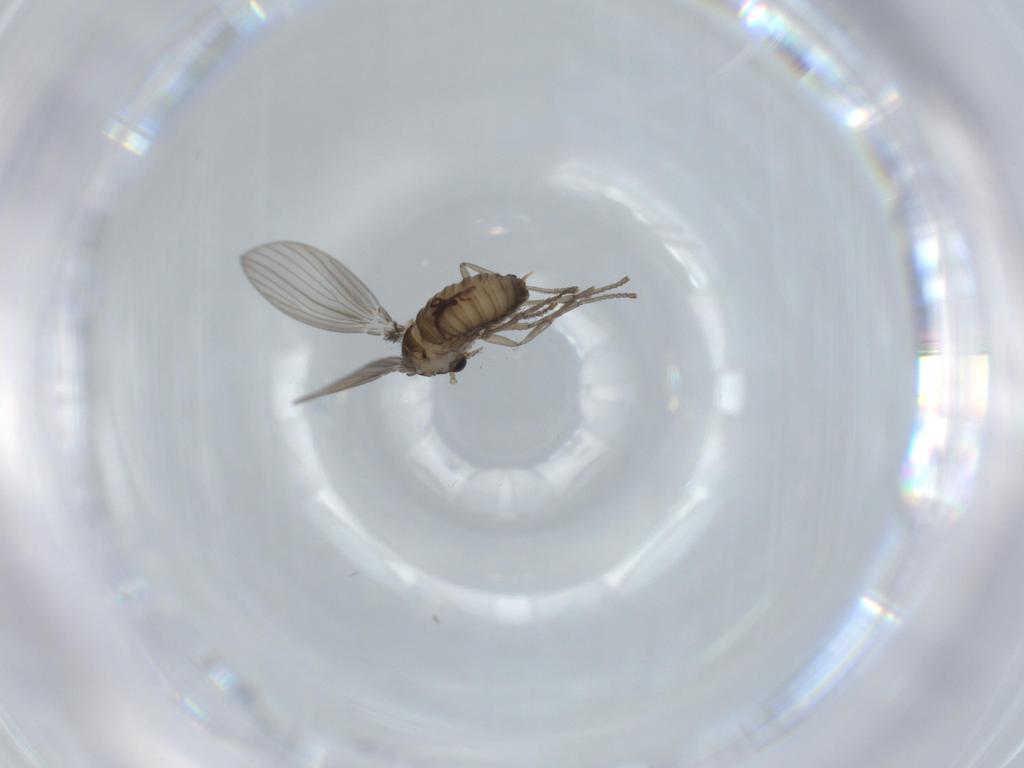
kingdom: Animalia
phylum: Arthropoda
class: Insecta
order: Diptera
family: Psychodidae
